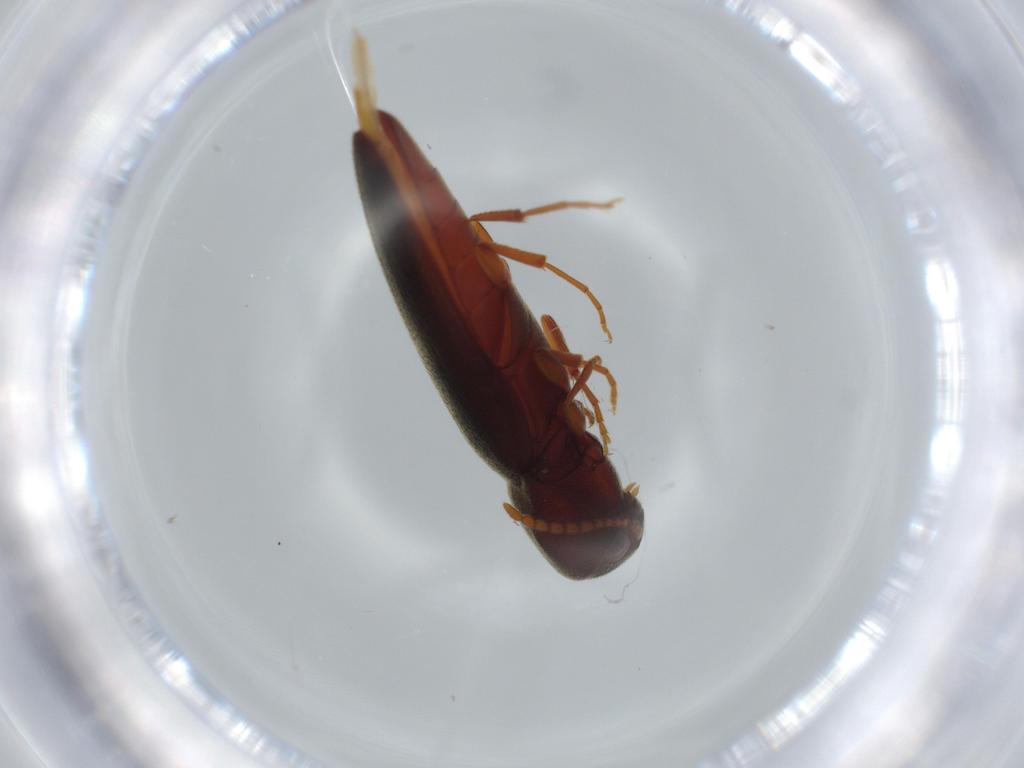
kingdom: Animalia
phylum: Arthropoda
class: Insecta
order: Coleoptera
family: Eucnemidae
